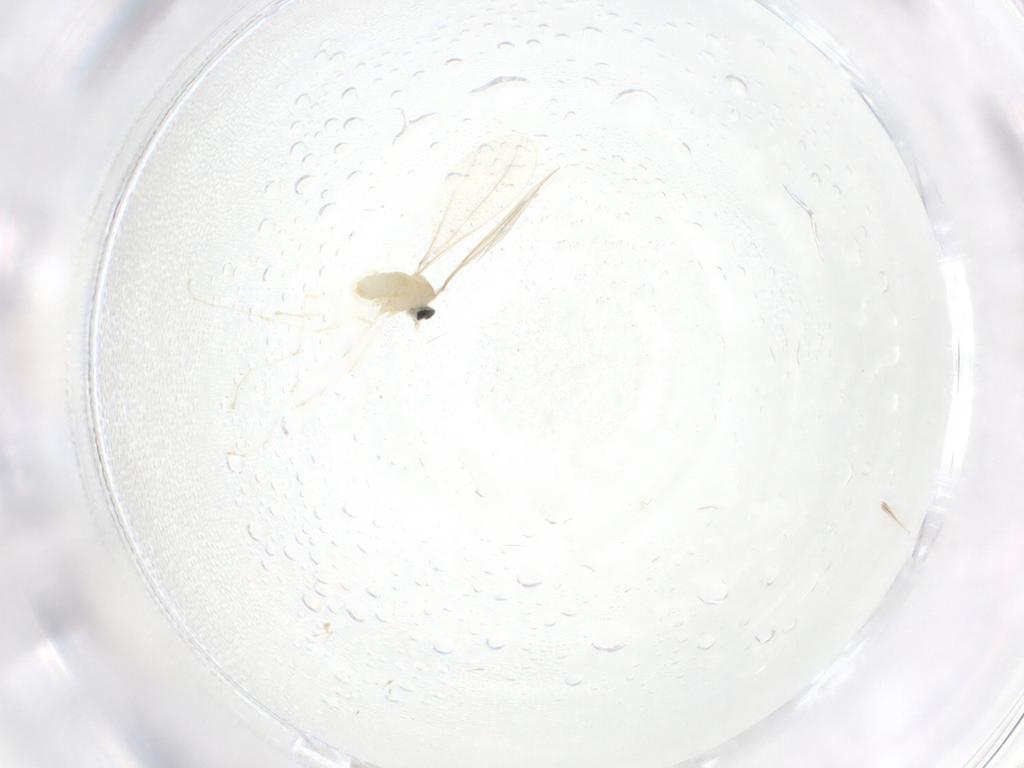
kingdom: Animalia
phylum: Arthropoda
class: Insecta
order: Diptera
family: Cecidomyiidae
